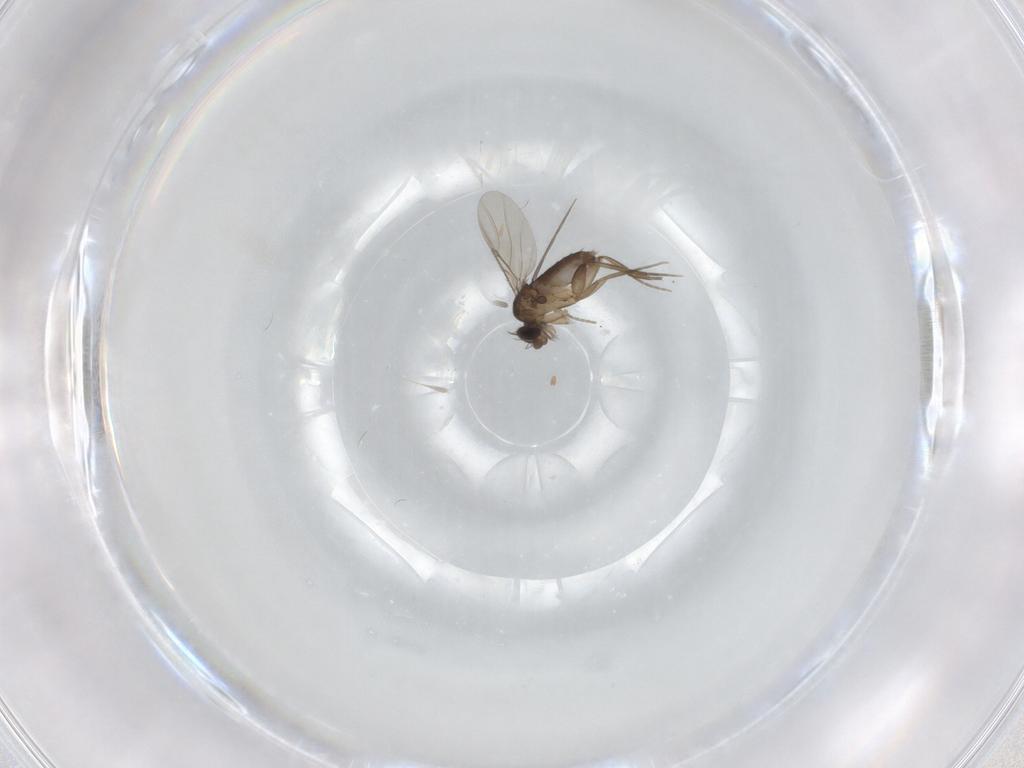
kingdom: Animalia
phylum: Arthropoda
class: Insecta
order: Diptera
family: Phoridae
